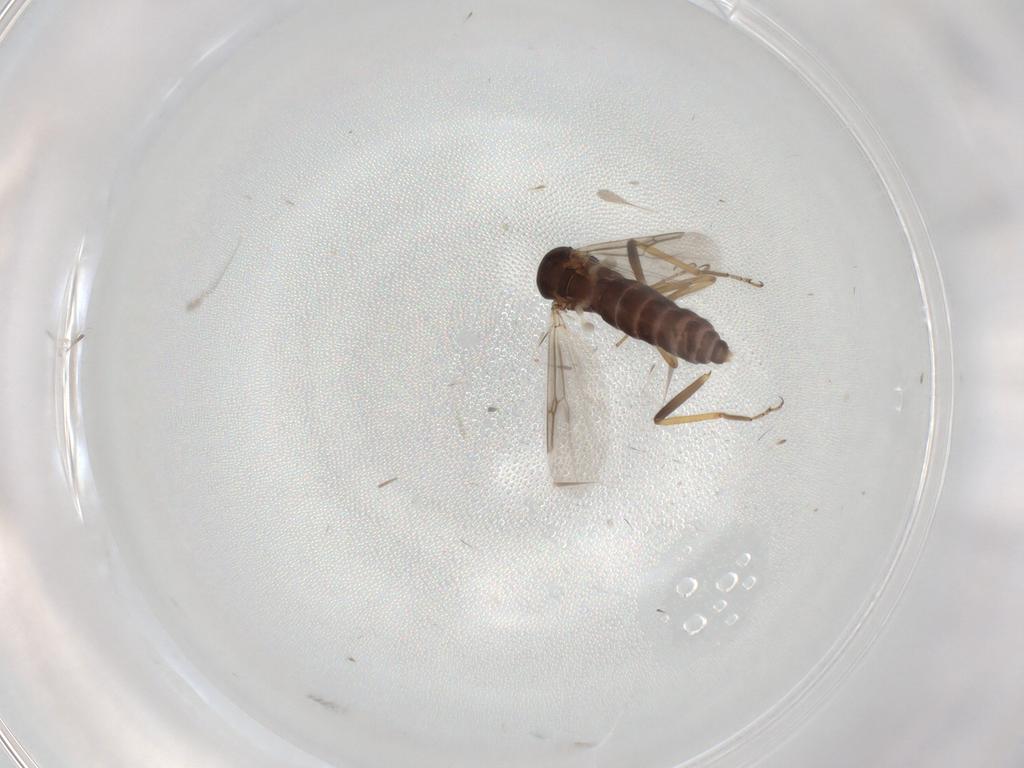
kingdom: Animalia
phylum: Arthropoda
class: Insecta
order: Diptera
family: Ceratopogonidae
